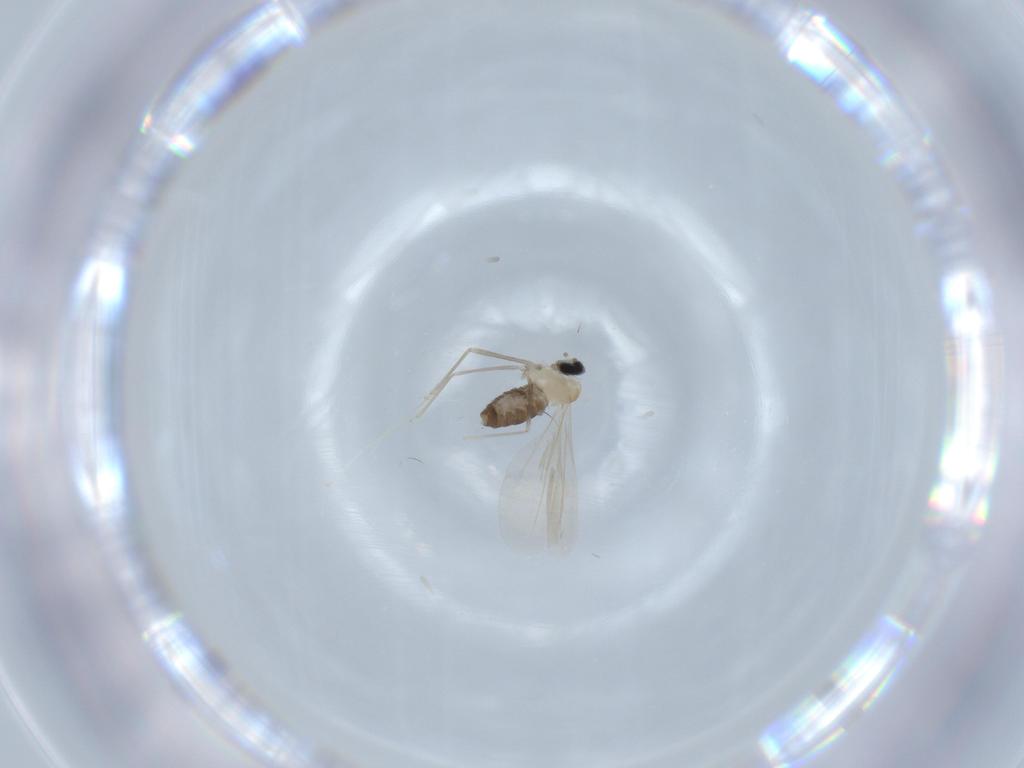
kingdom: Animalia
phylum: Arthropoda
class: Insecta
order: Diptera
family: Cecidomyiidae
